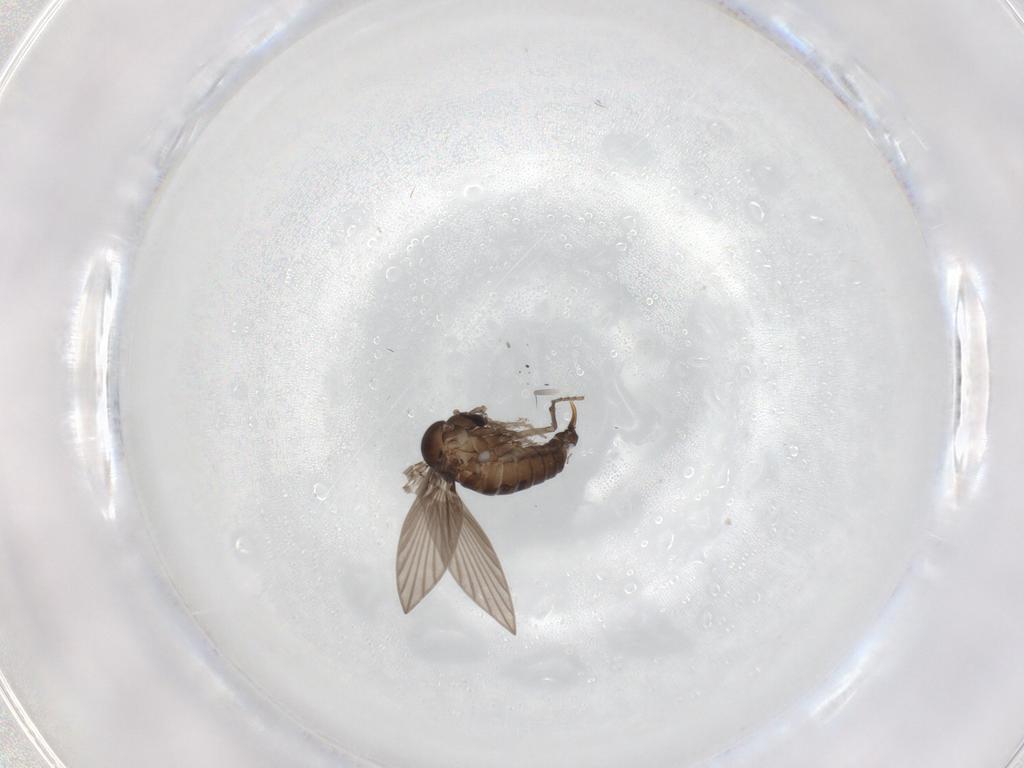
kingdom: Animalia
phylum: Arthropoda
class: Insecta
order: Diptera
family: Psychodidae
